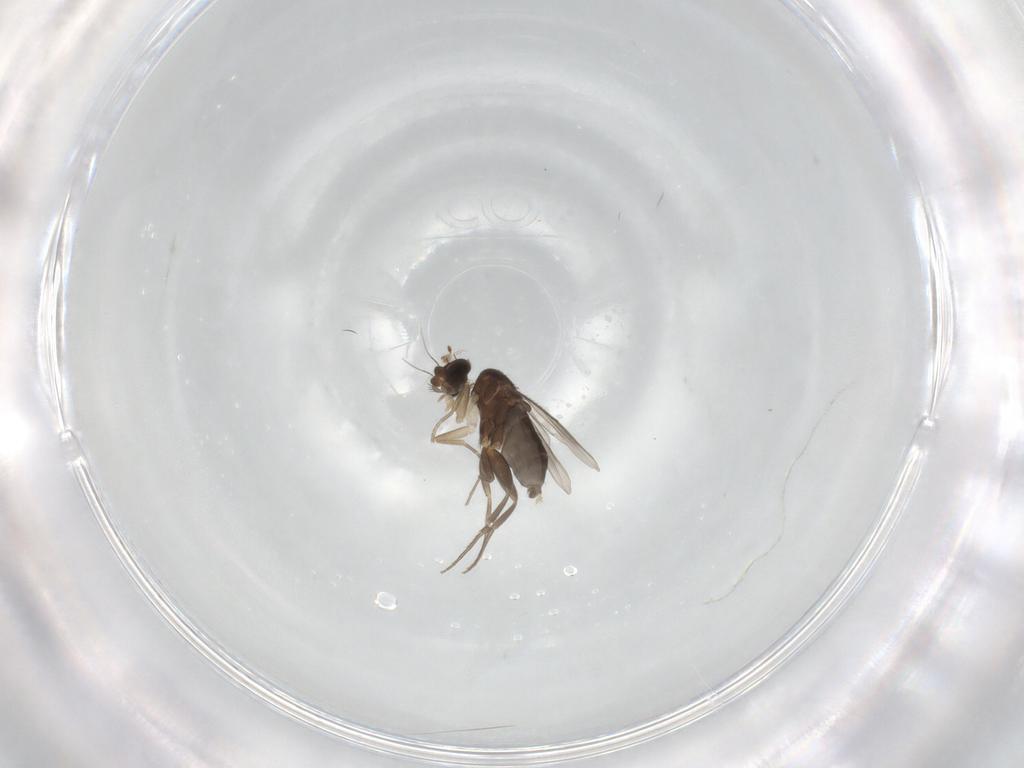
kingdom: Animalia
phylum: Arthropoda
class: Insecta
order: Diptera
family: Phoridae
